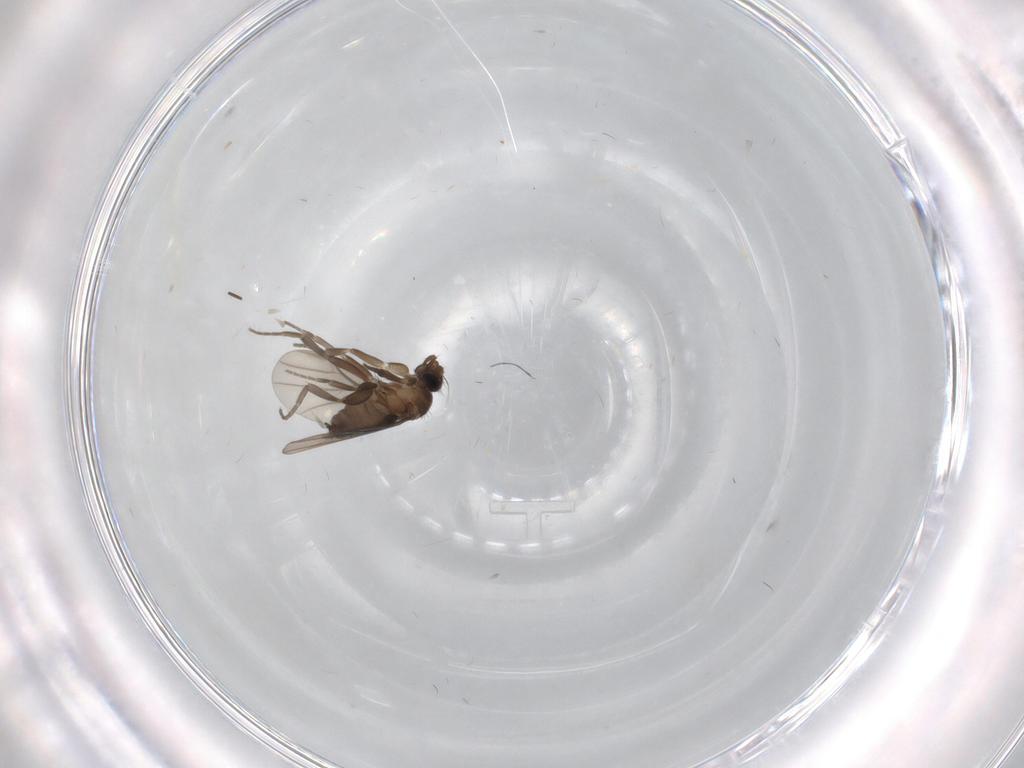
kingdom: Animalia
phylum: Arthropoda
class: Insecta
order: Diptera
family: Phoridae
